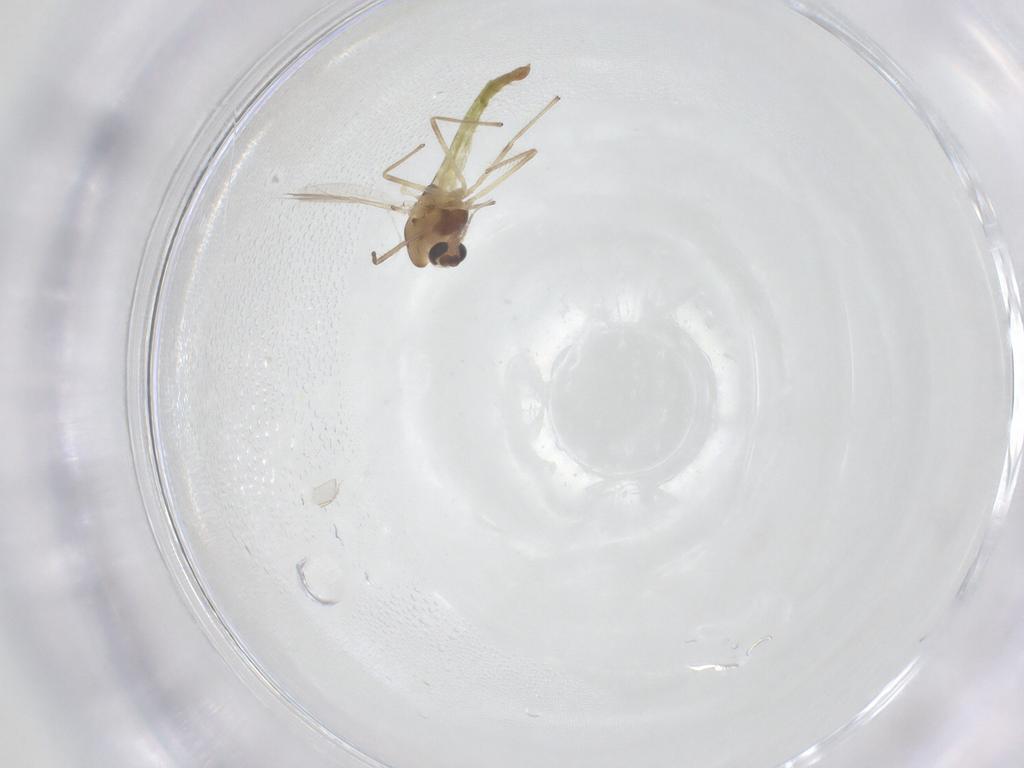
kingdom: Animalia
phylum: Arthropoda
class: Insecta
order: Diptera
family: Chironomidae
